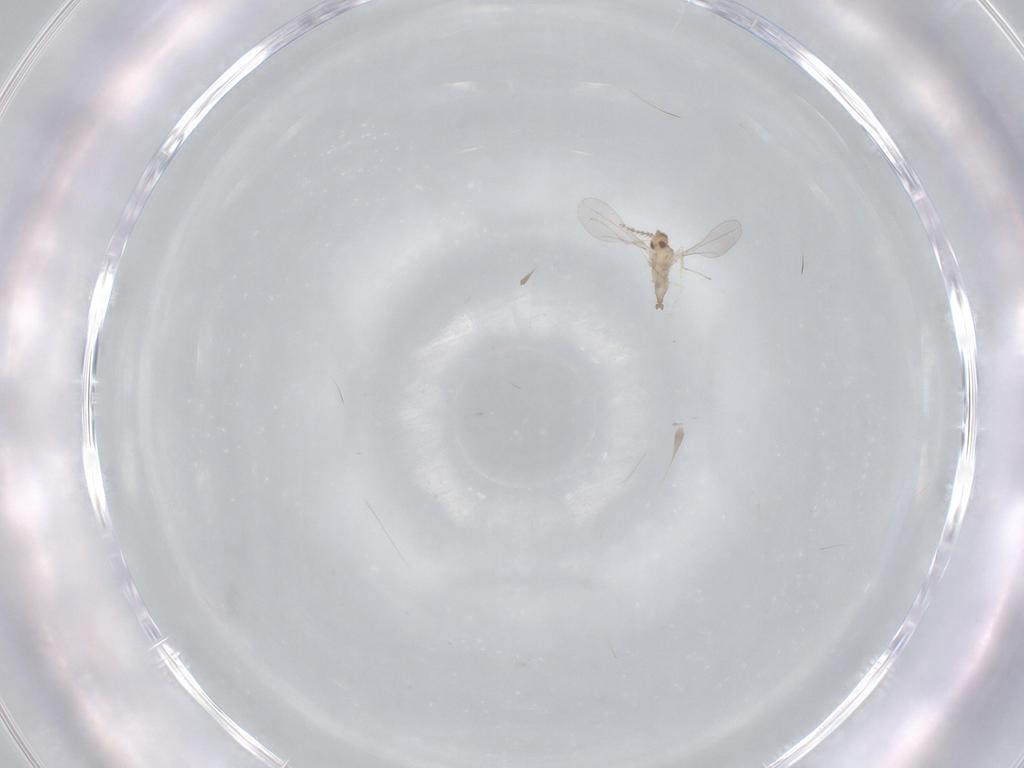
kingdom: Animalia
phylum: Arthropoda
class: Insecta
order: Diptera
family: Cecidomyiidae
